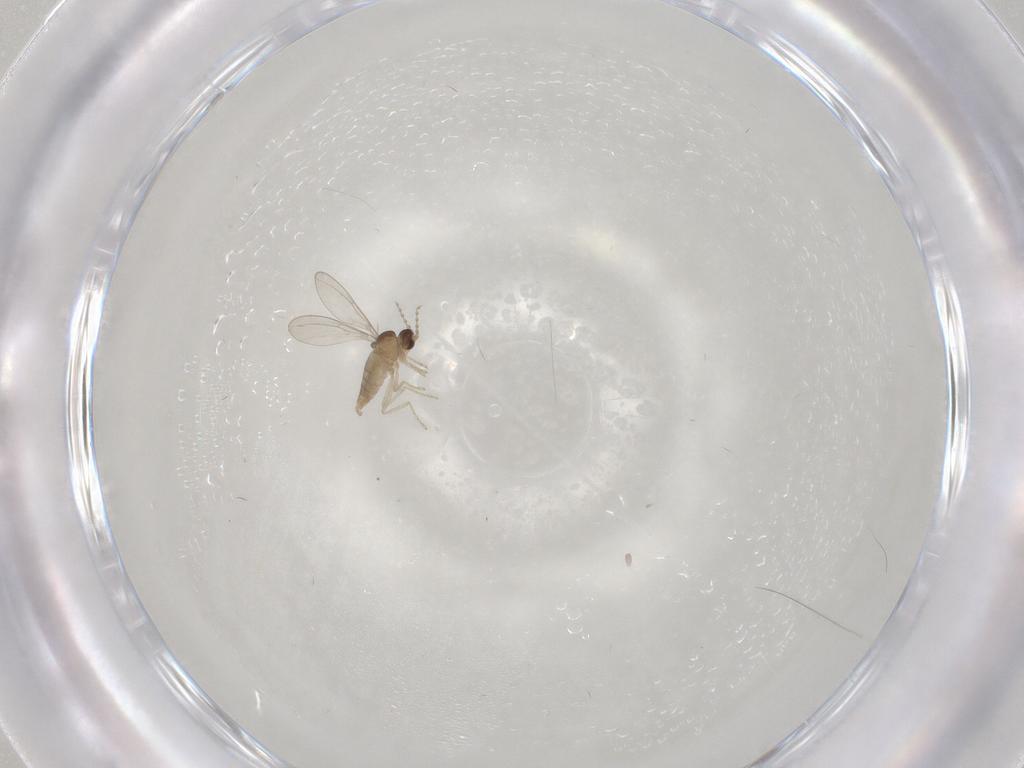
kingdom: Animalia
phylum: Arthropoda
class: Insecta
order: Diptera
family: Cecidomyiidae
